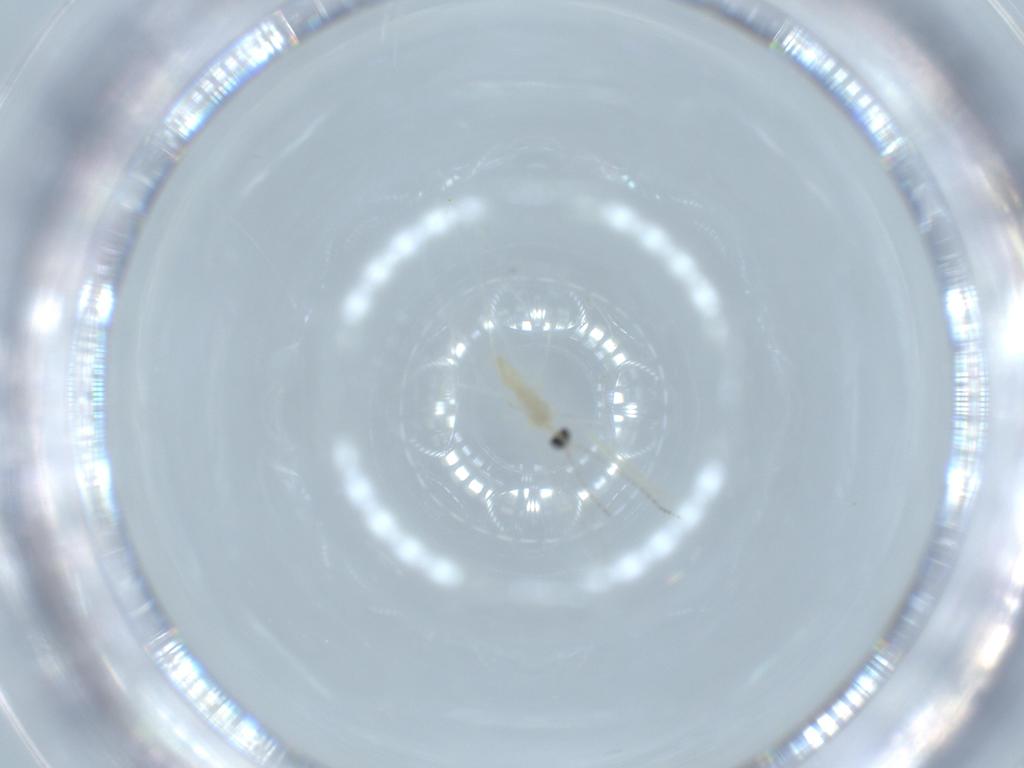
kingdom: Animalia
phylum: Arthropoda
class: Insecta
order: Diptera
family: Cecidomyiidae
